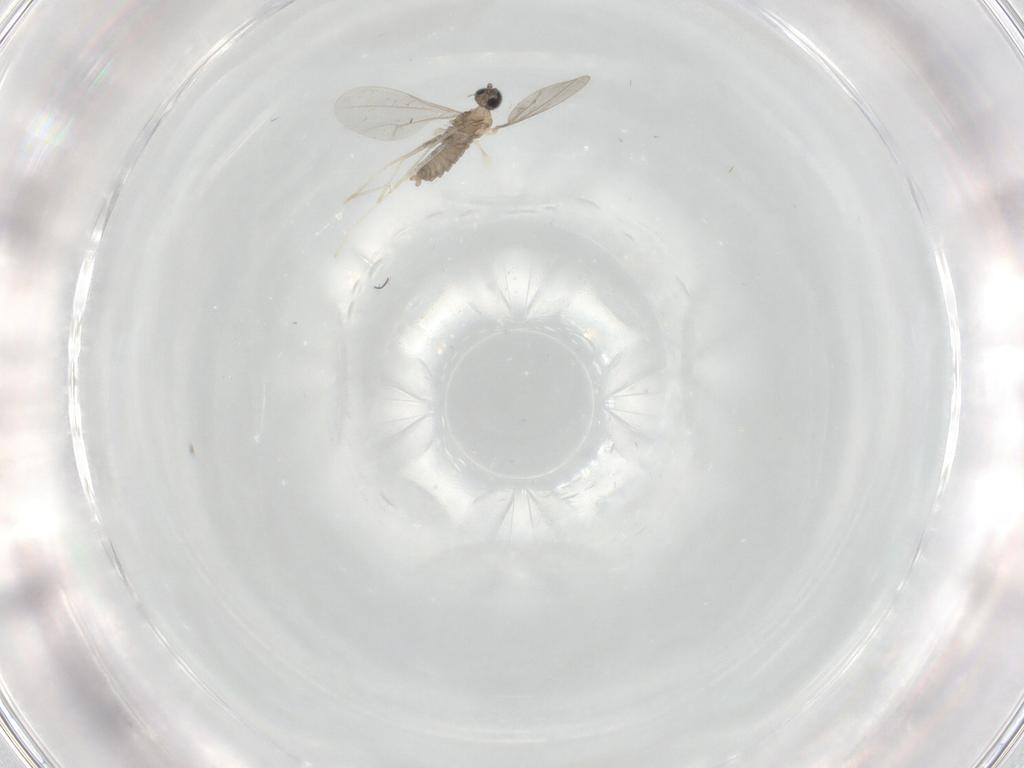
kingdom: Animalia
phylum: Arthropoda
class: Insecta
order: Diptera
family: Cecidomyiidae
